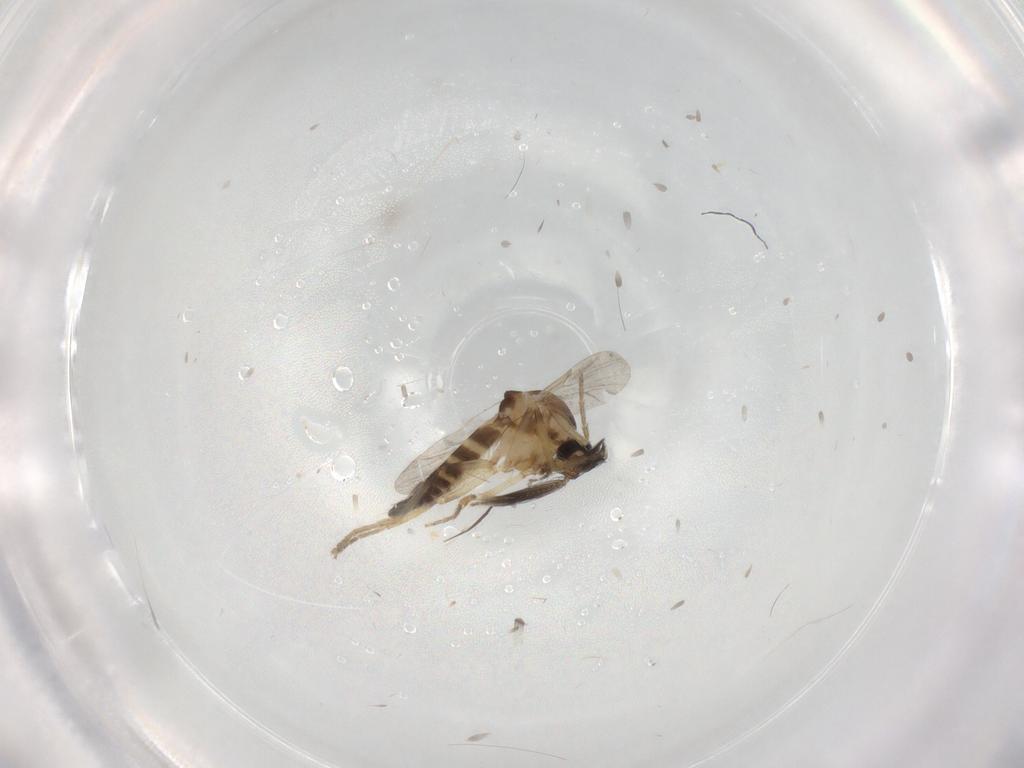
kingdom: Animalia
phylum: Arthropoda
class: Insecta
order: Diptera
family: Ceratopogonidae
